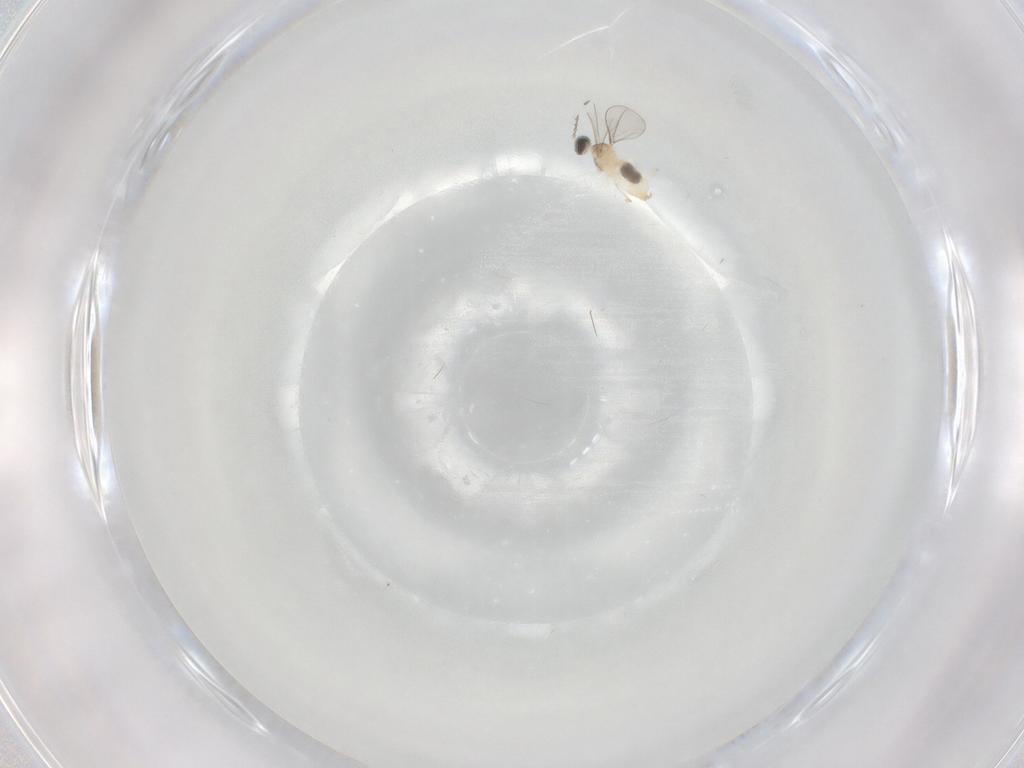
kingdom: Animalia
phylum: Arthropoda
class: Insecta
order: Diptera
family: Cecidomyiidae
